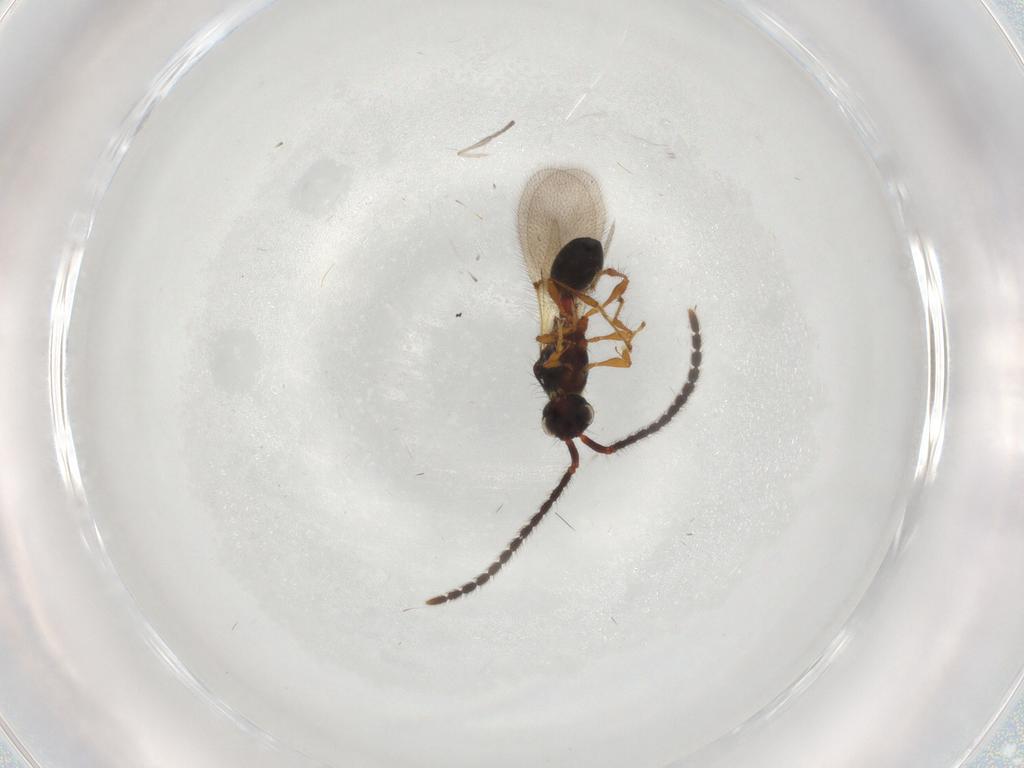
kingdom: Animalia
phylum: Arthropoda
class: Insecta
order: Hymenoptera
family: Diapriidae
